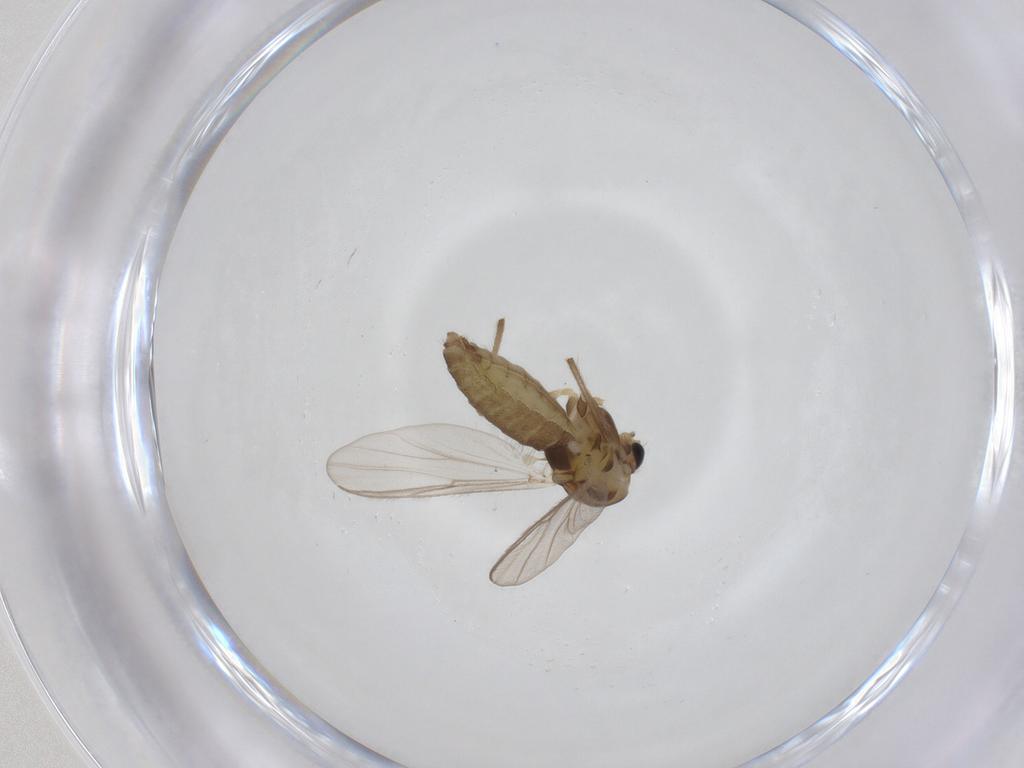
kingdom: Animalia
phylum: Arthropoda
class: Insecta
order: Diptera
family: Chironomidae
